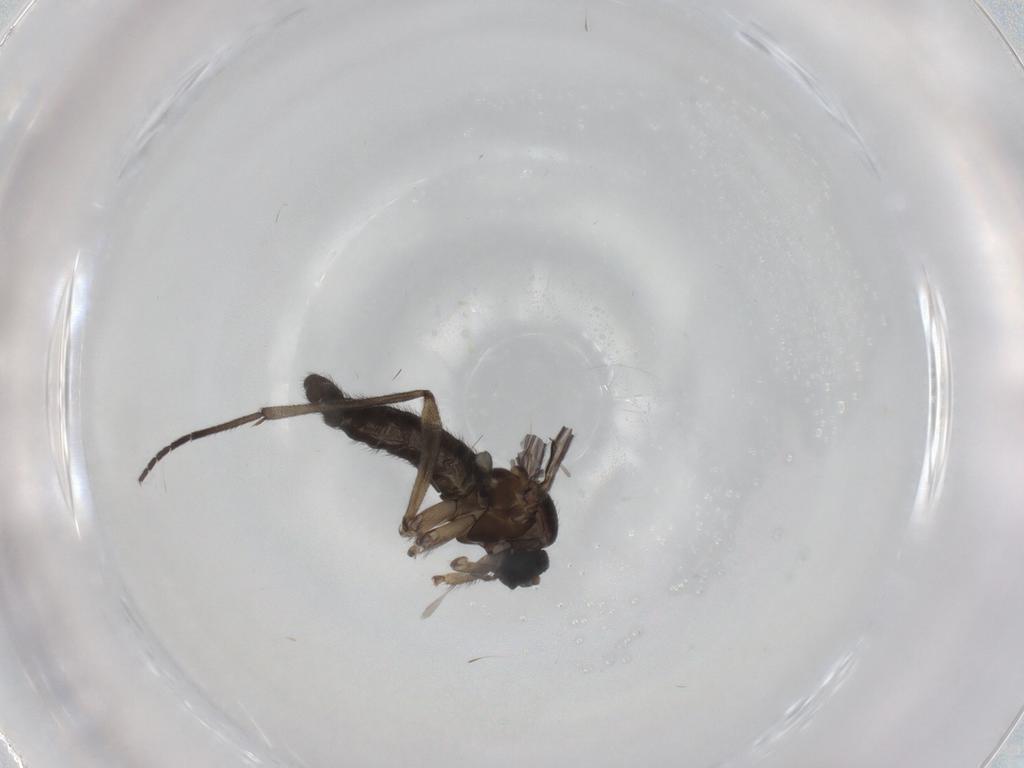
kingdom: Animalia
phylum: Arthropoda
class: Insecta
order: Diptera
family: Sciaridae
